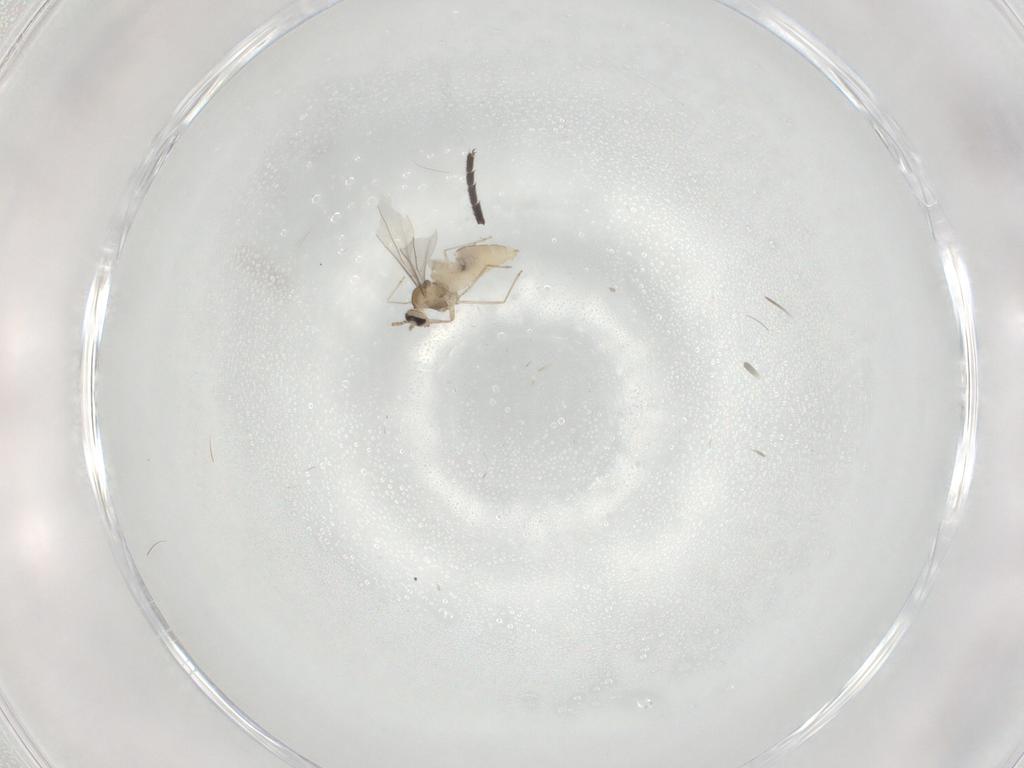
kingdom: Animalia
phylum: Arthropoda
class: Insecta
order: Diptera
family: Cecidomyiidae
